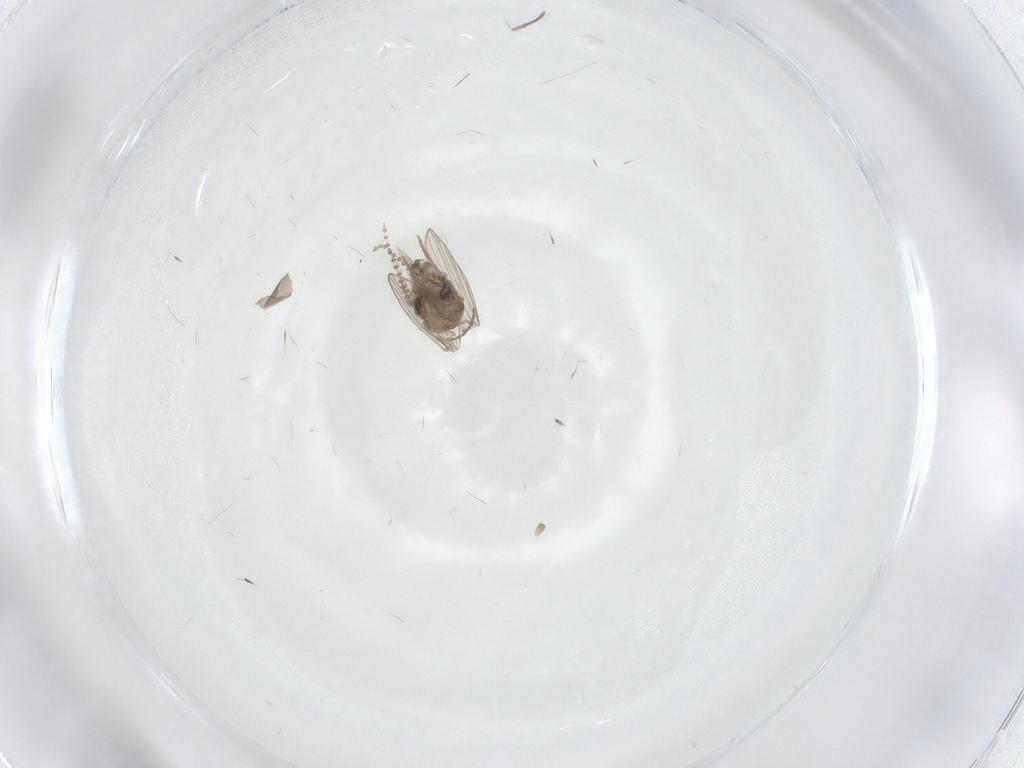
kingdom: Animalia
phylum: Arthropoda
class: Insecta
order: Diptera
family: Psychodidae
